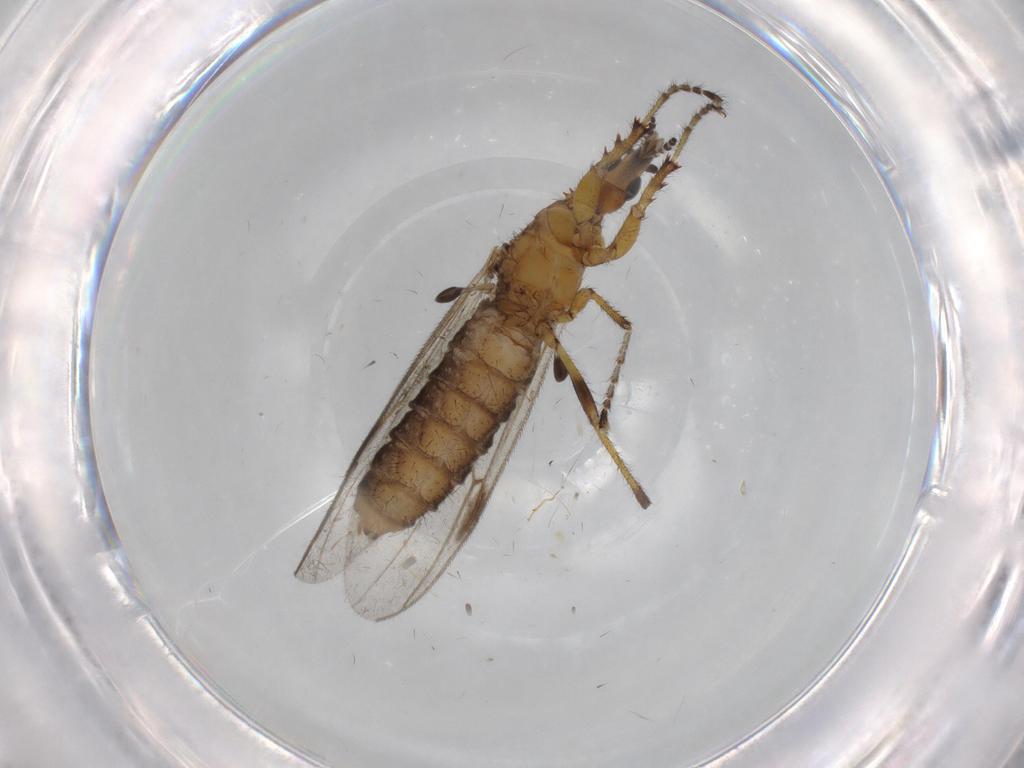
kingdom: Animalia
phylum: Arthropoda
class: Insecta
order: Diptera
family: Bibionidae
